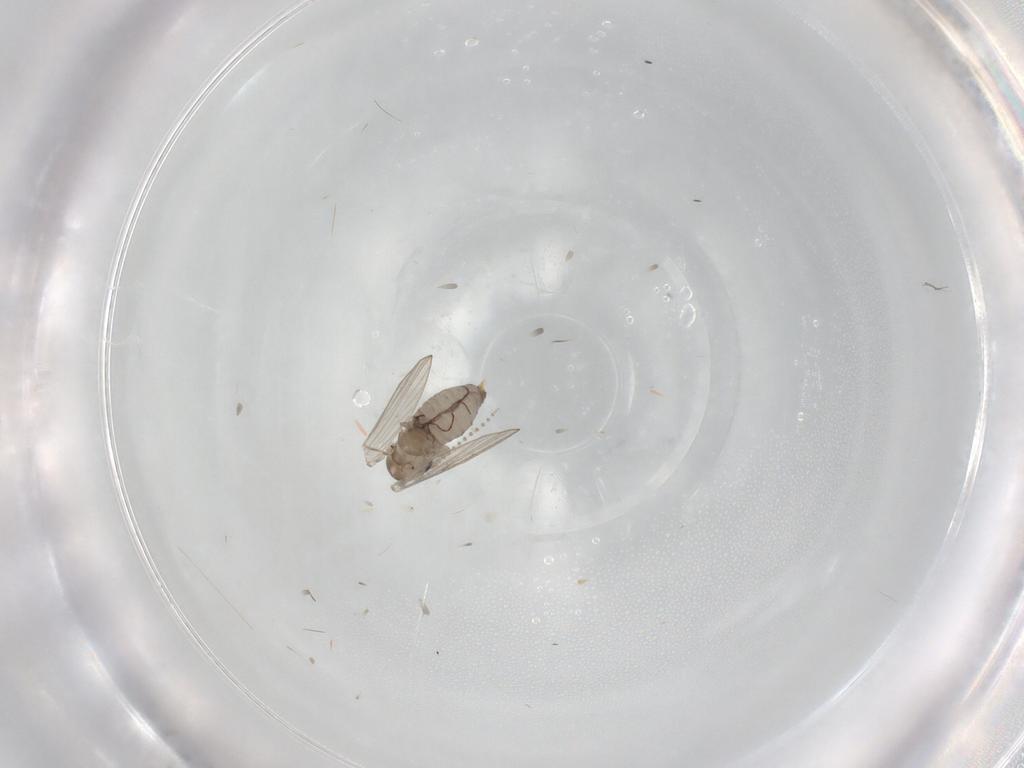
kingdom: Animalia
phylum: Arthropoda
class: Insecta
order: Diptera
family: Psychodidae
